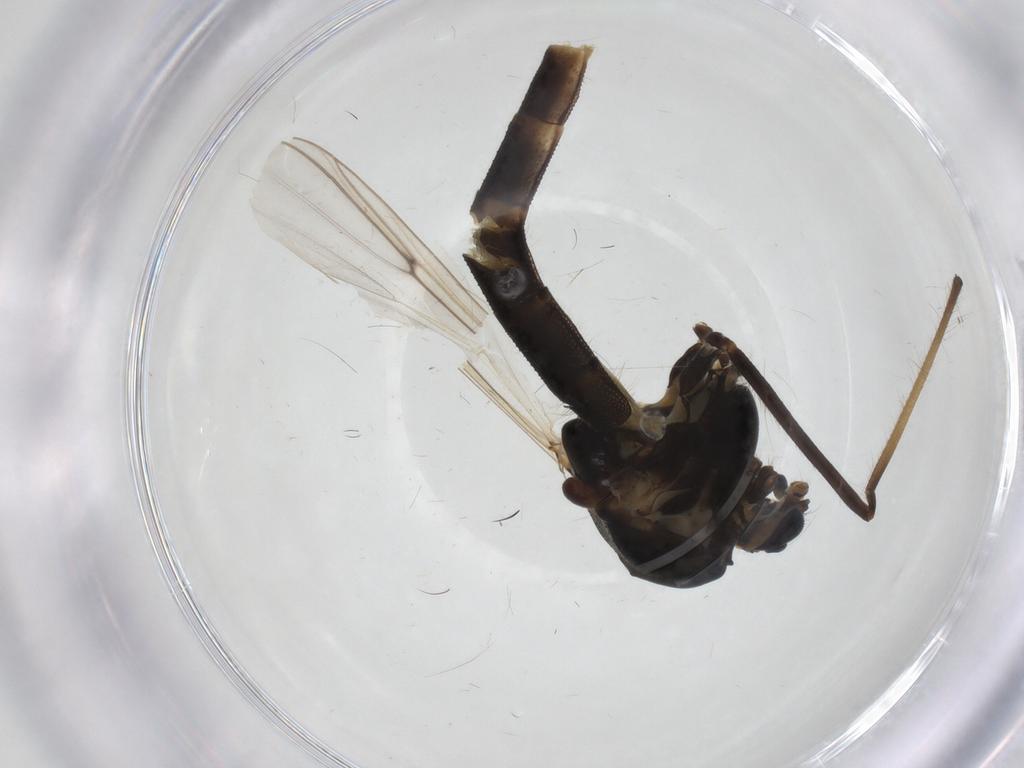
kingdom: Animalia
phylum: Arthropoda
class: Insecta
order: Diptera
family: Chironomidae
